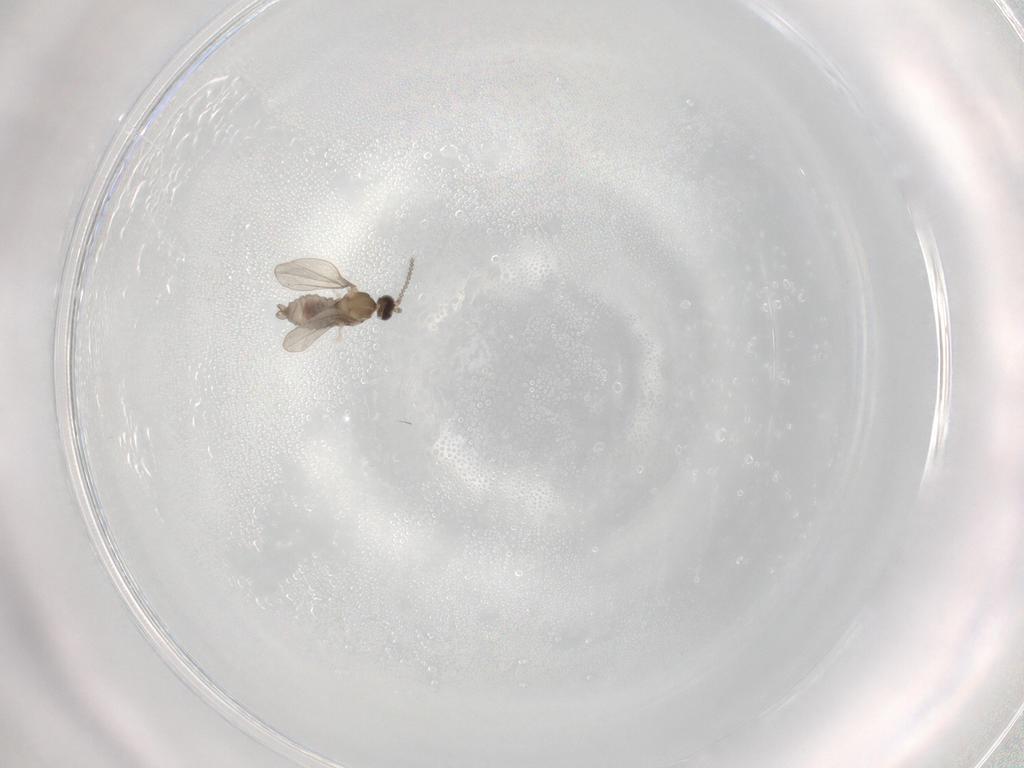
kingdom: Animalia
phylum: Arthropoda
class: Insecta
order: Diptera
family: Cecidomyiidae
